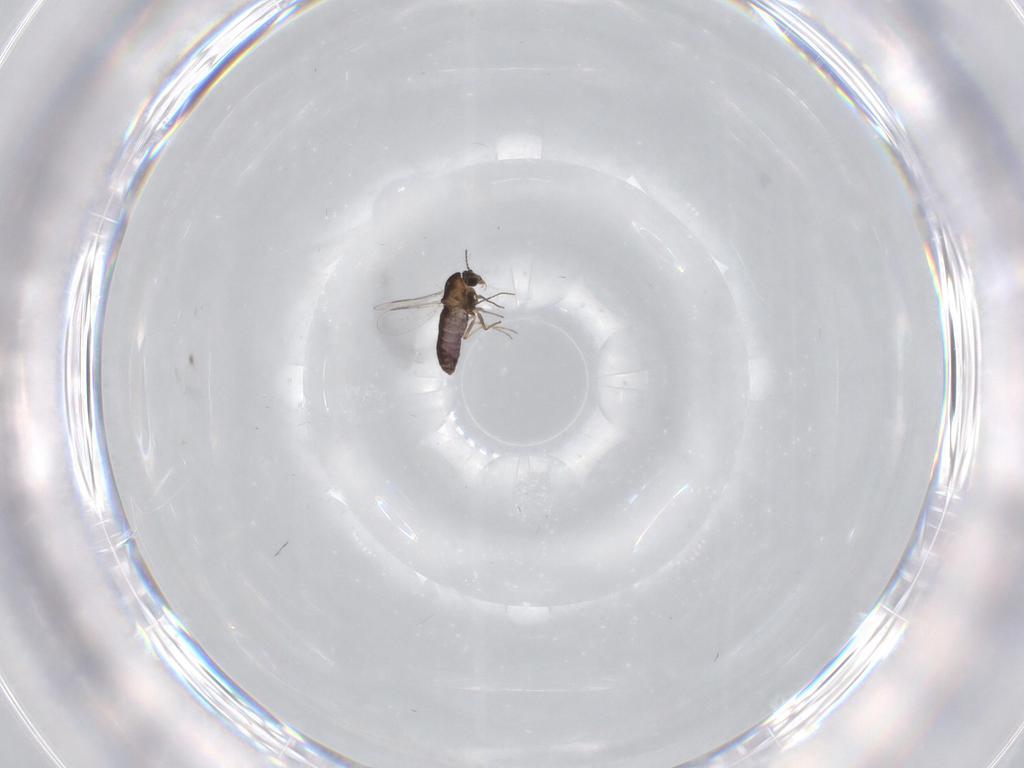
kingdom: Animalia
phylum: Arthropoda
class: Insecta
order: Diptera
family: Chironomidae
